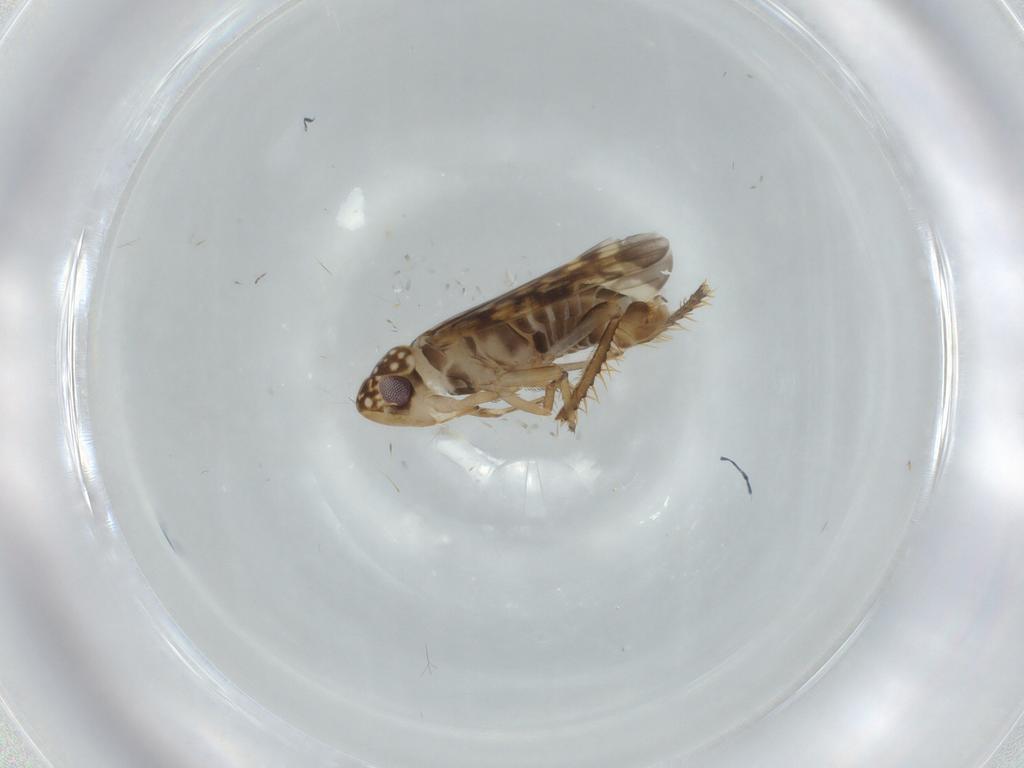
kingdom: Animalia
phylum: Arthropoda
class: Insecta
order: Hemiptera
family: Cicadellidae
